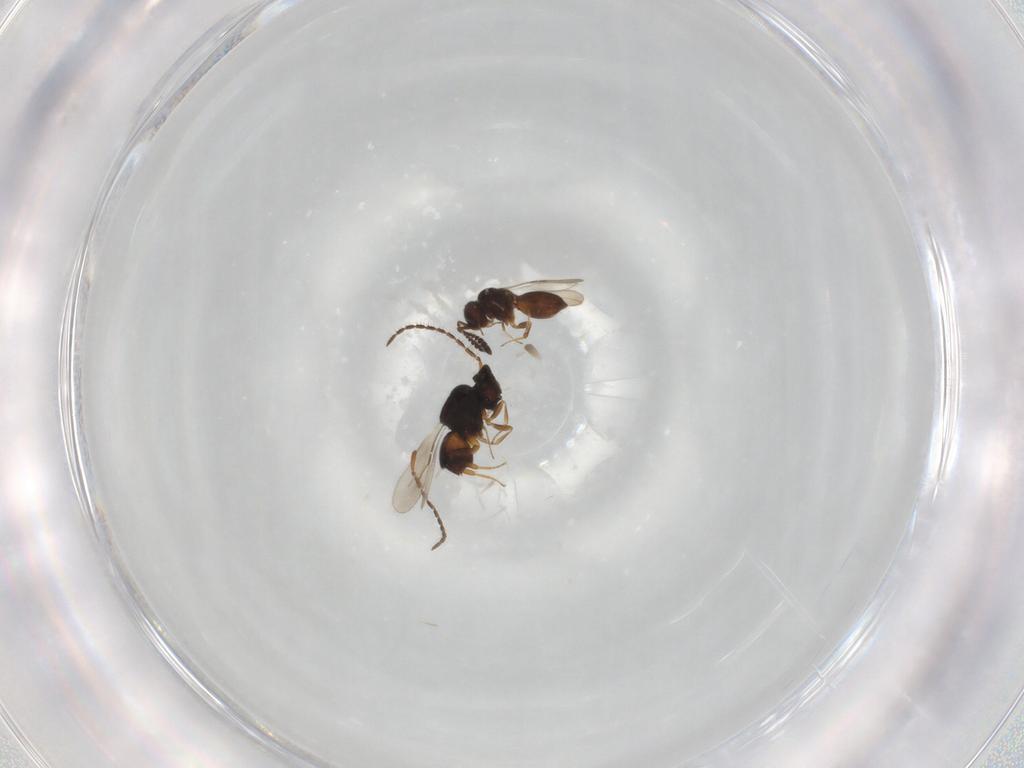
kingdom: Animalia
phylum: Arthropoda
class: Insecta
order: Hymenoptera
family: Ceraphronidae
